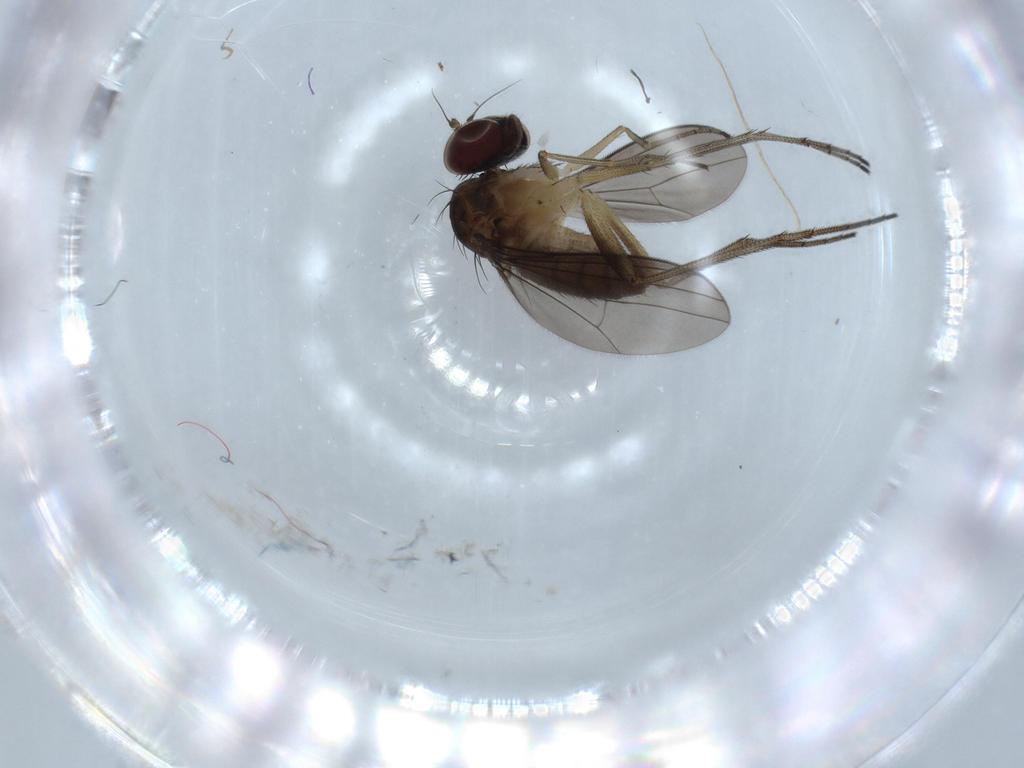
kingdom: Animalia
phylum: Arthropoda
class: Insecta
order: Diptera
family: Dolichopodidae
